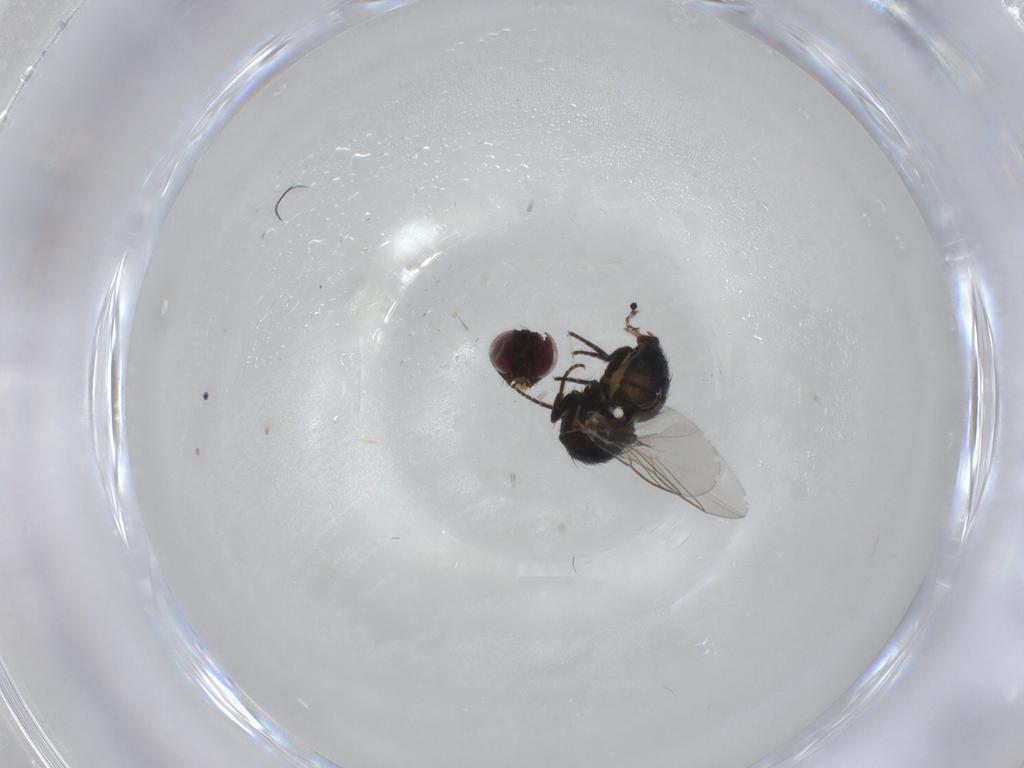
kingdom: Animalia
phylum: Arthropoda
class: Insecta
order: Diptera
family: Agromyzidae
